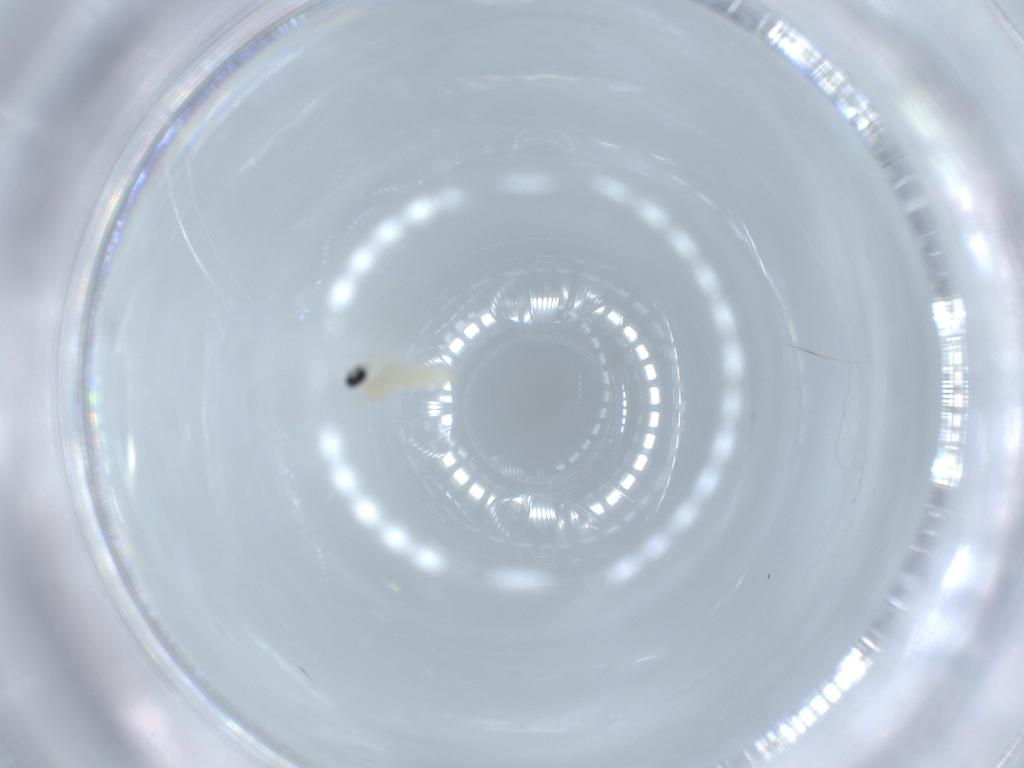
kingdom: Animalia
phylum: Arthropoda
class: Insecta
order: Diptera
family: Cecidomyiidae
